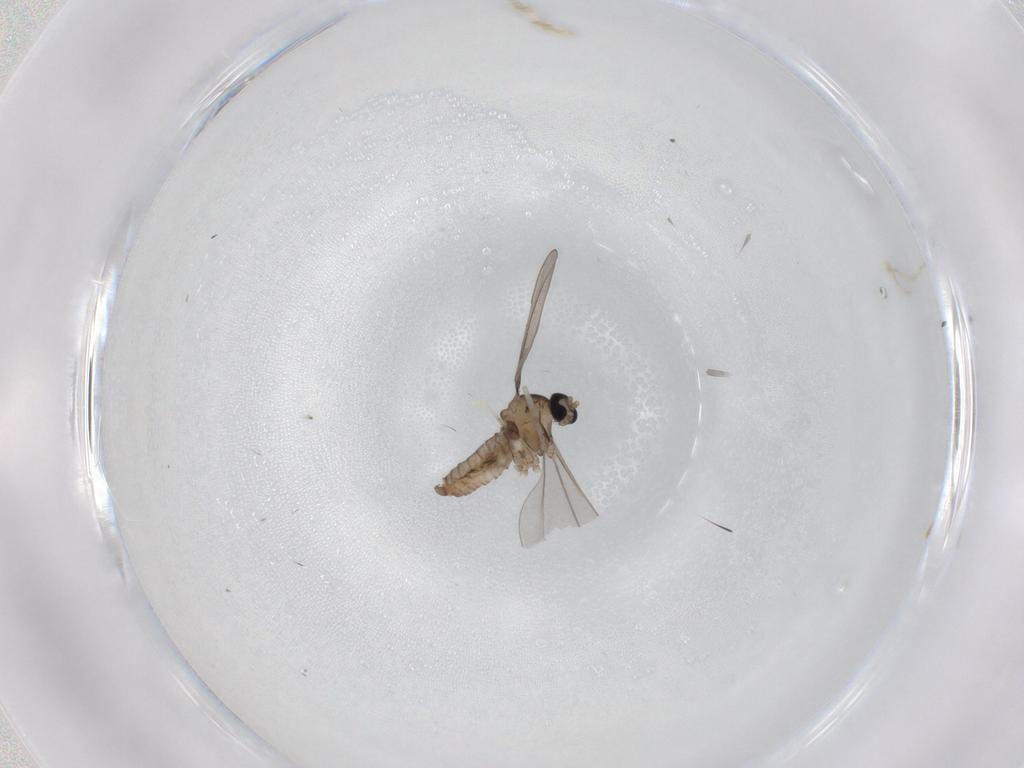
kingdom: Animalia
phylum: Arthropoda
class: Insecta
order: Diptera
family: Cecidomyiidae
